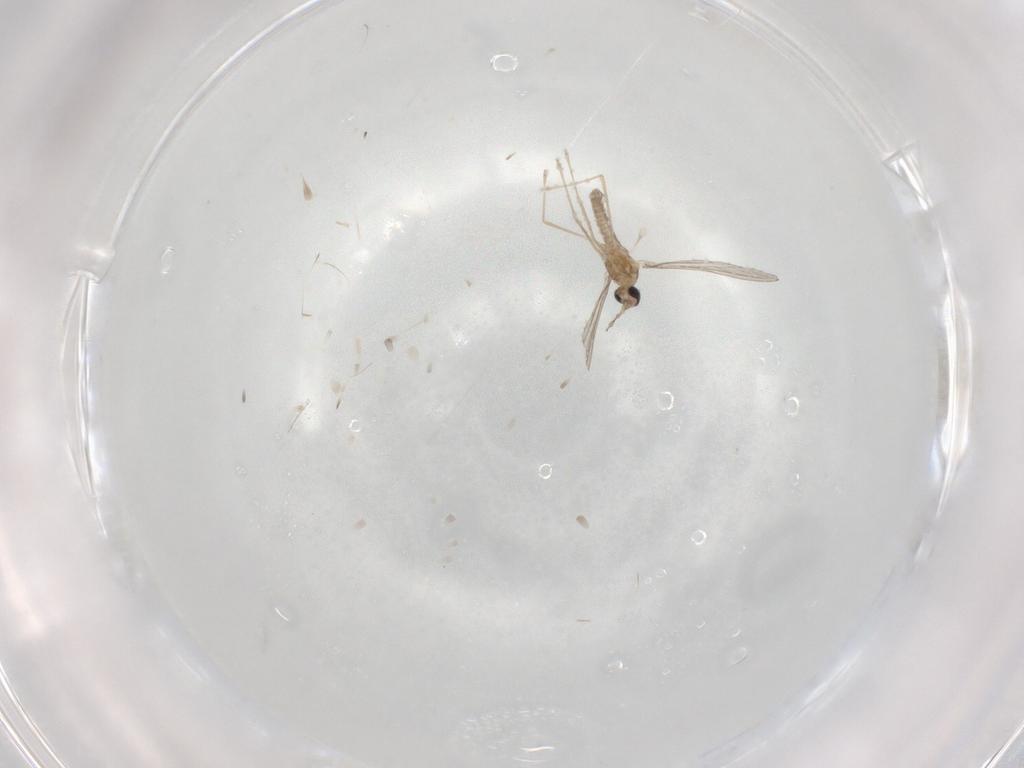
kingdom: Animalia
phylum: Arthropoda
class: Insecta
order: Diptera
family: Cecidomyiidae
